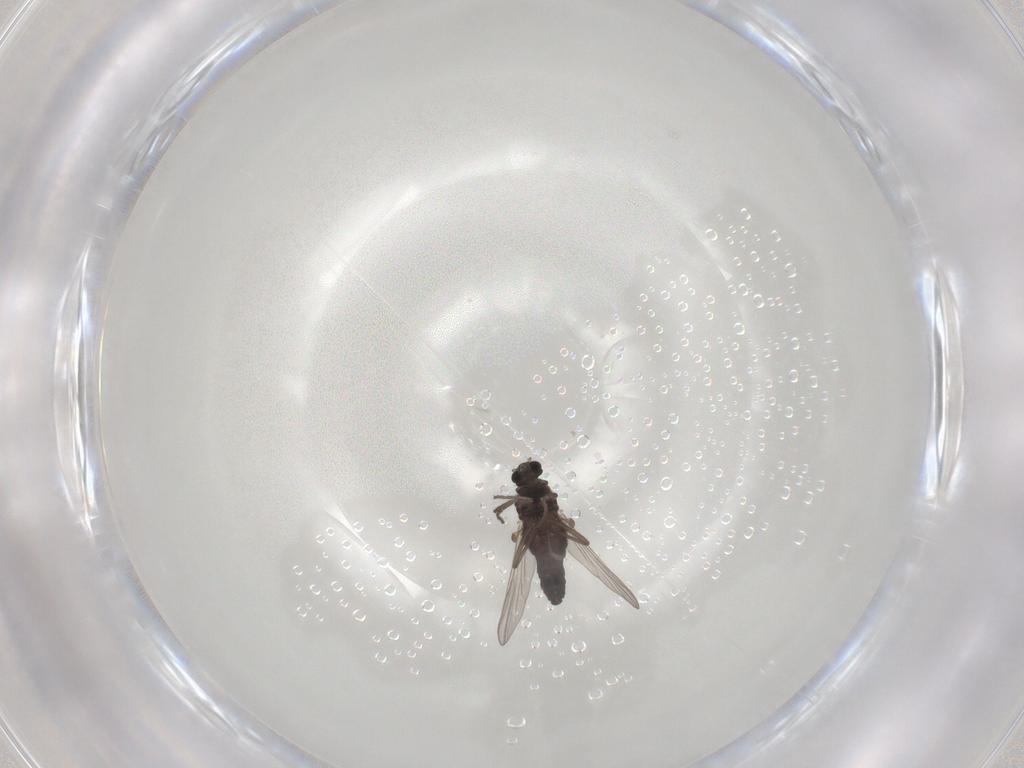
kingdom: Animalia
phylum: Arthropoda
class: Insecta
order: Diptera
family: Chironomidae
